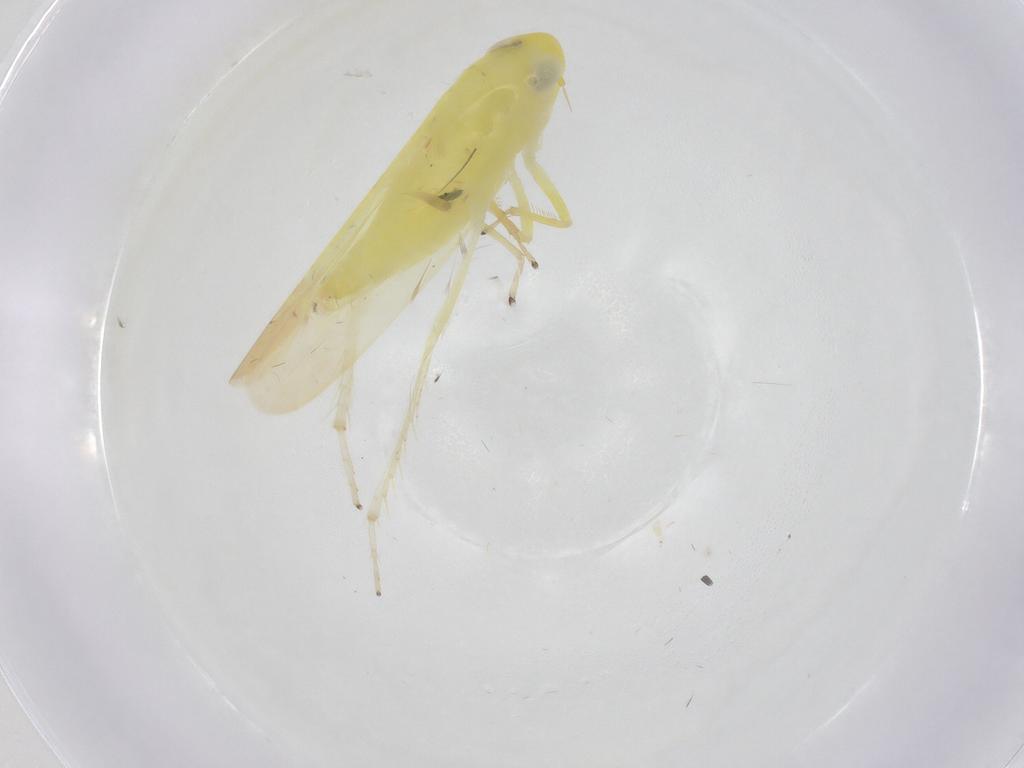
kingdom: Animalia
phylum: Arthropoda
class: Insecta
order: Hemiptera
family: Cicadellidae
